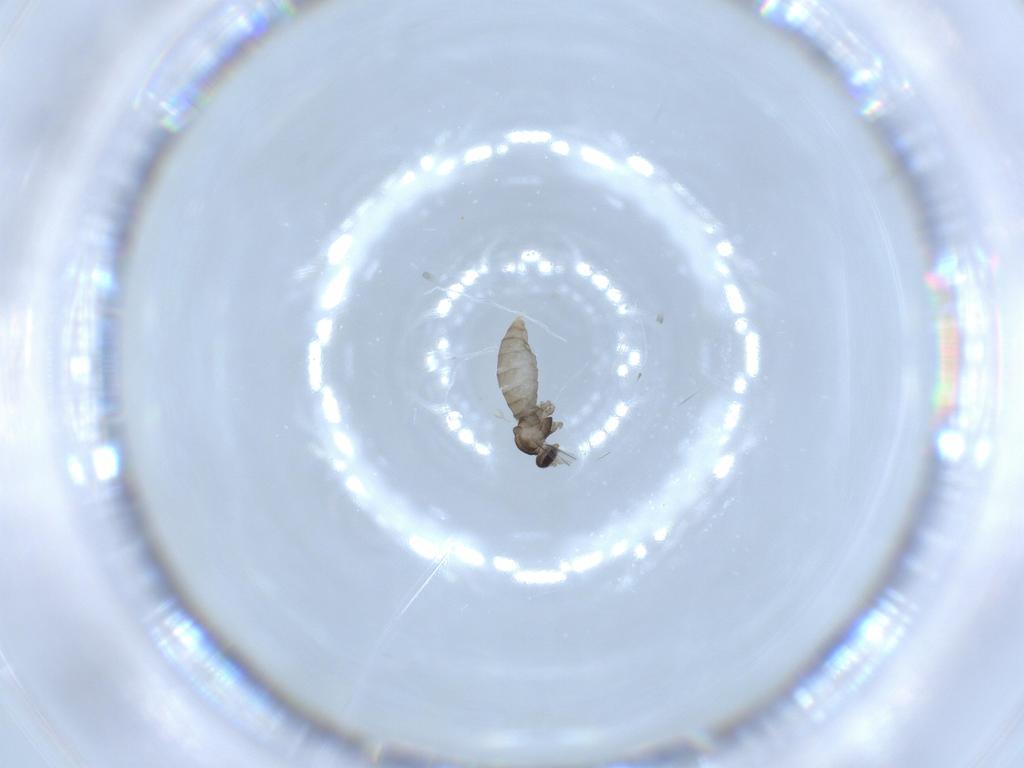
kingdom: Animalia
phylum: Arthropoda
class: Insecta
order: Diptera
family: Cecidomyiidae
